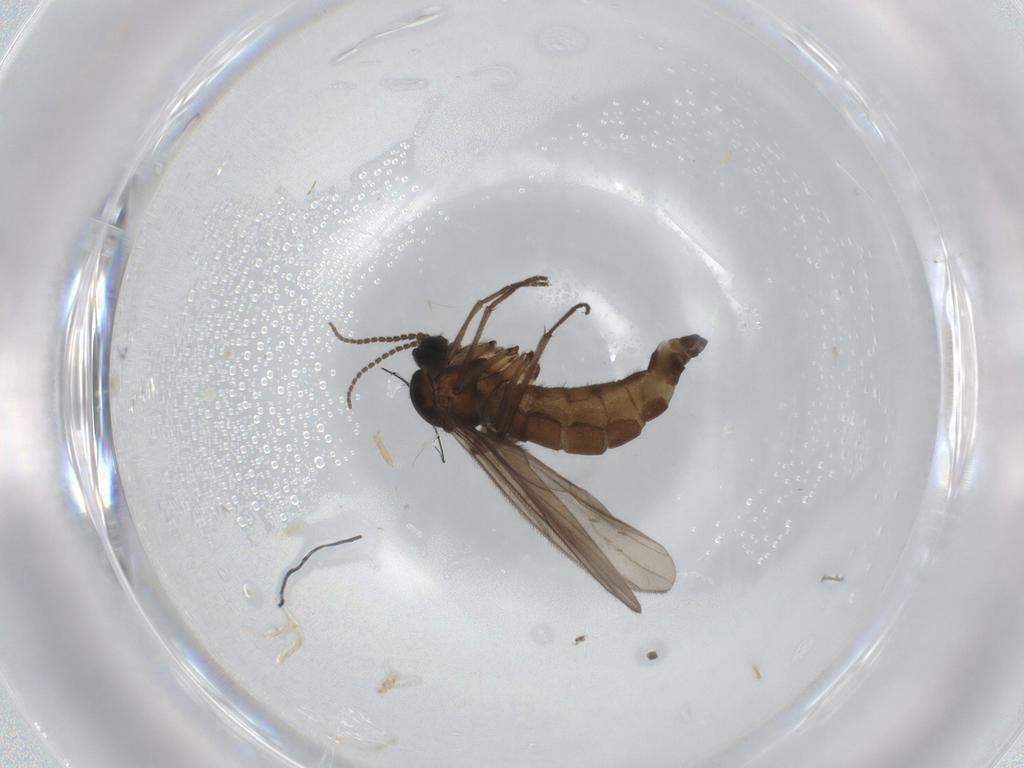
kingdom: Animalia
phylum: Arthropoda
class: Insecta
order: Diptera
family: Sciaridae
